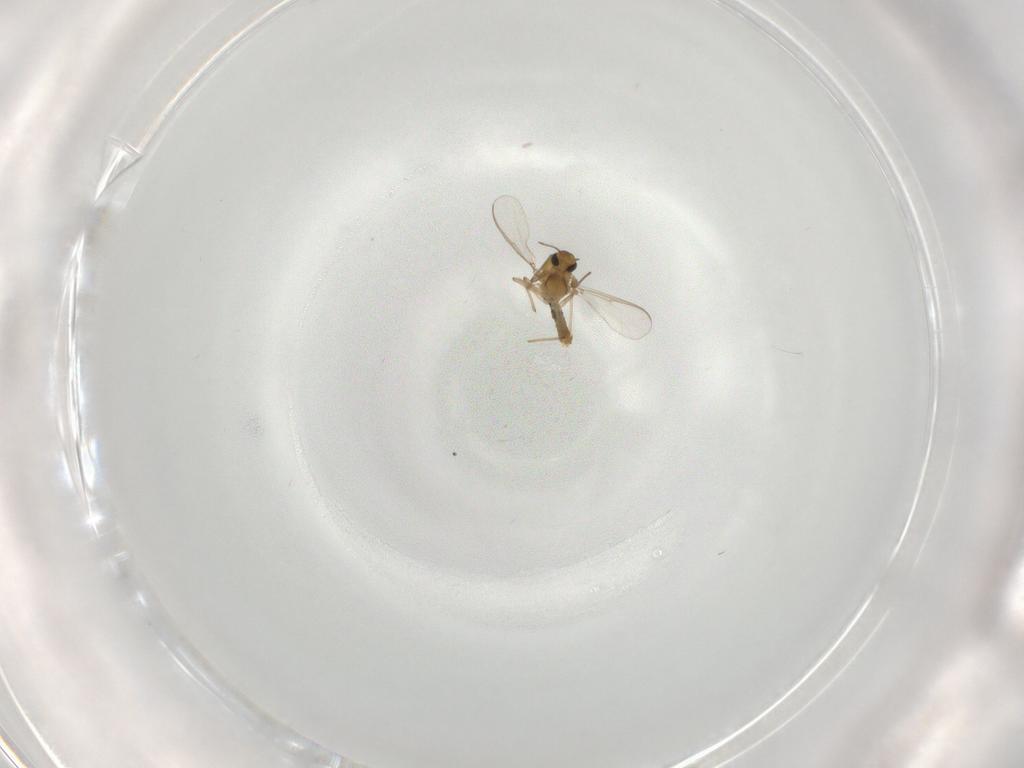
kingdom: Animalia
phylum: Arthropoda
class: Insecta
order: Diptera
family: Chironomidae
